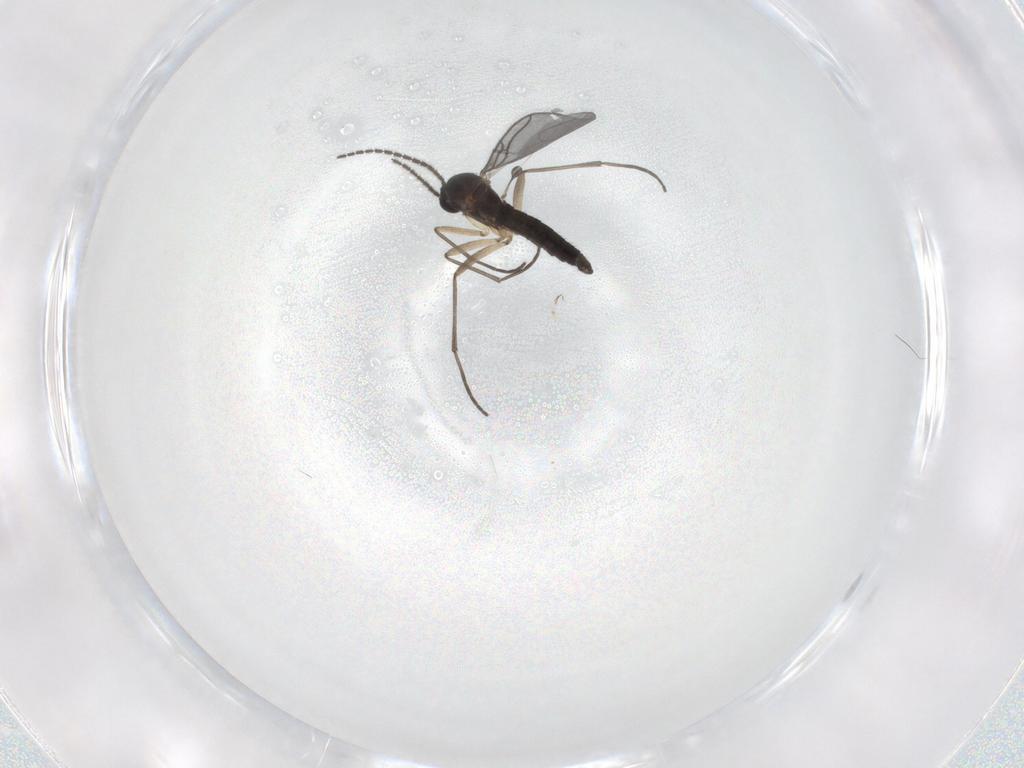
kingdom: Animalia
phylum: Arthropoda
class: Insecta
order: Diptera
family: Sciaridae
